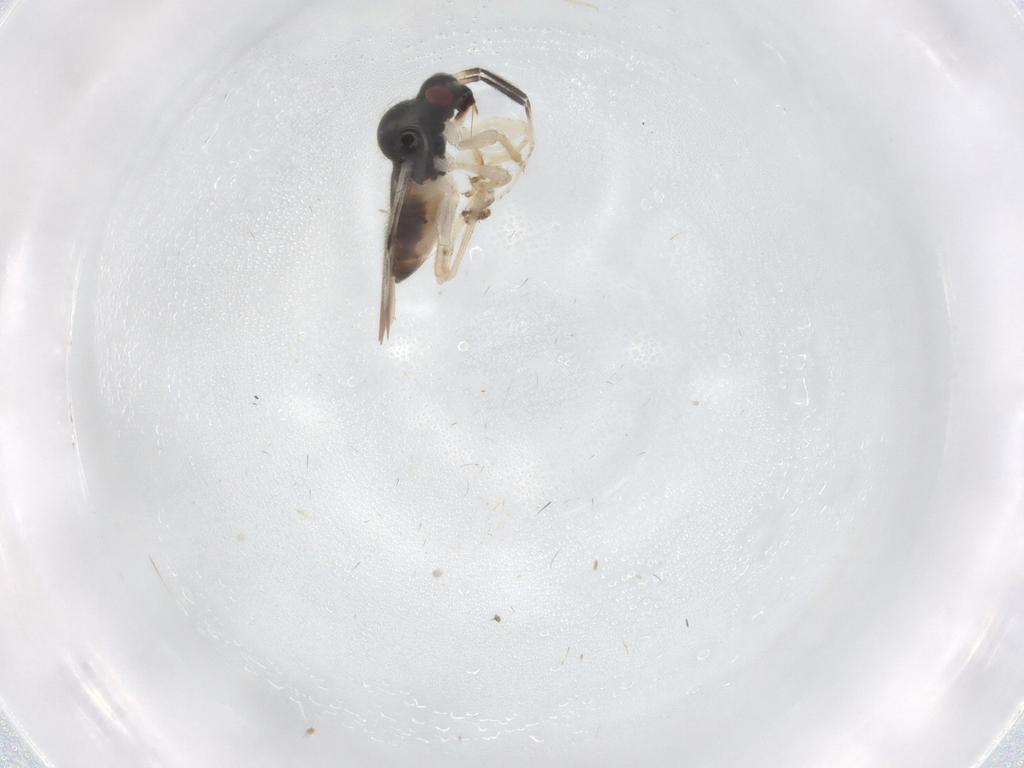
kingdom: Animalia
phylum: Arthropoda
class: Insecta
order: Hemiptera
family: Miridae
